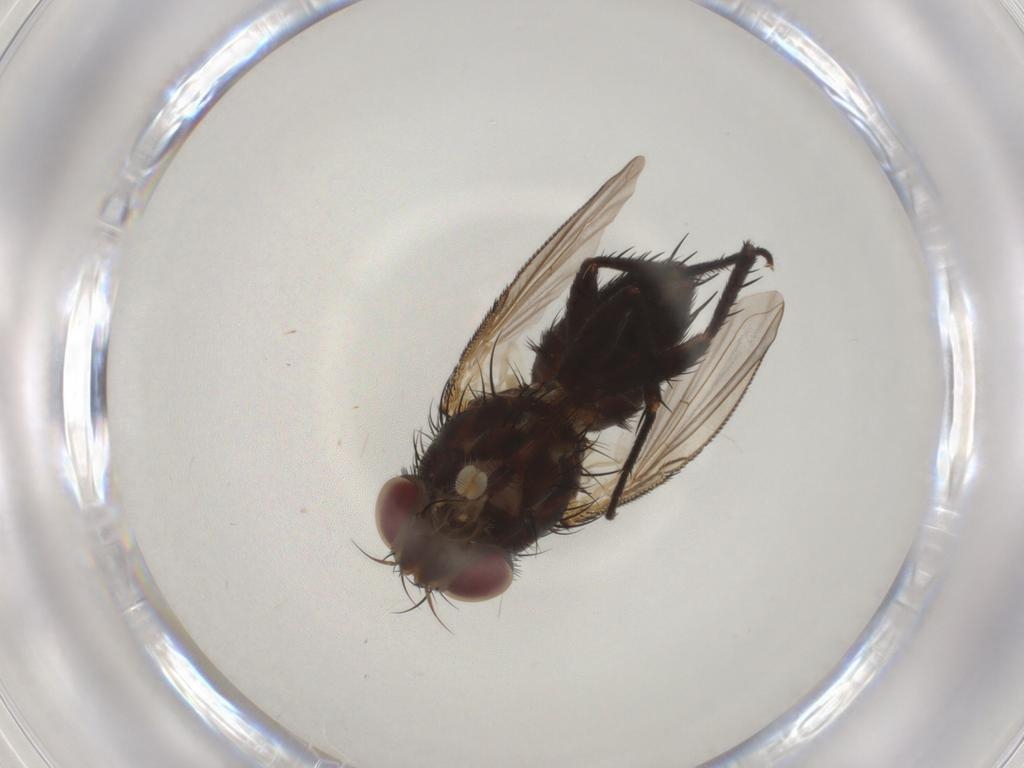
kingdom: Animalia
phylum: Arthropoda
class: Insecta
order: Diptera
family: Tachinidae
